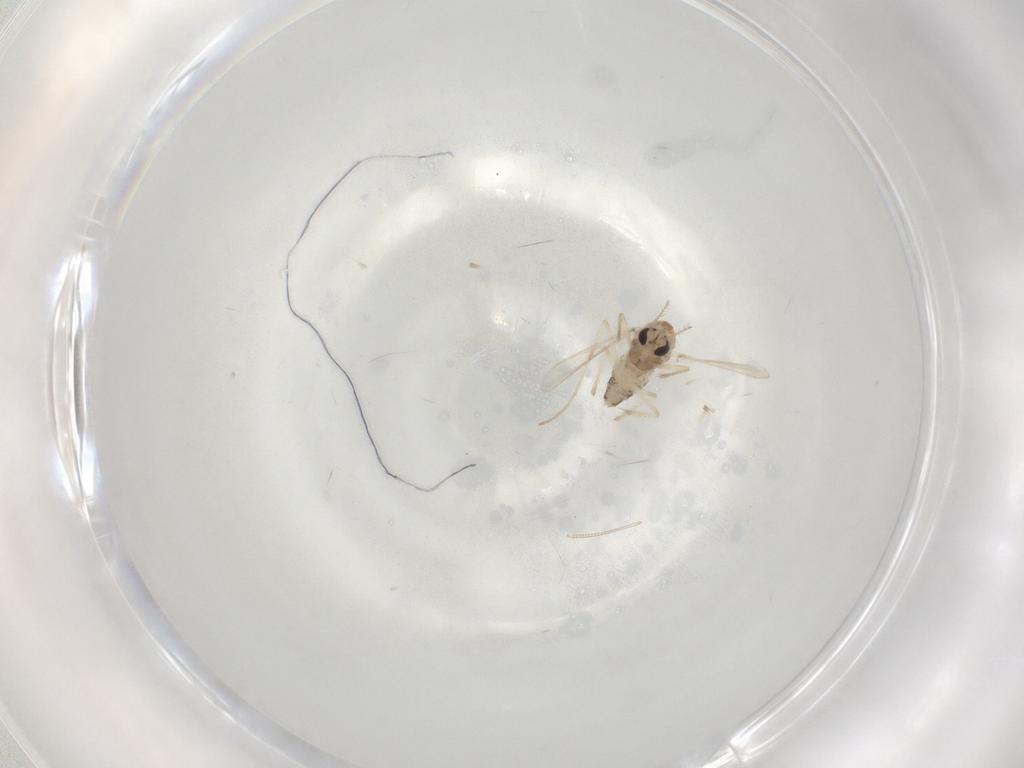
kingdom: Animalia
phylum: Arthropoda
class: Insecta
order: Diptera
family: Chironomidae
